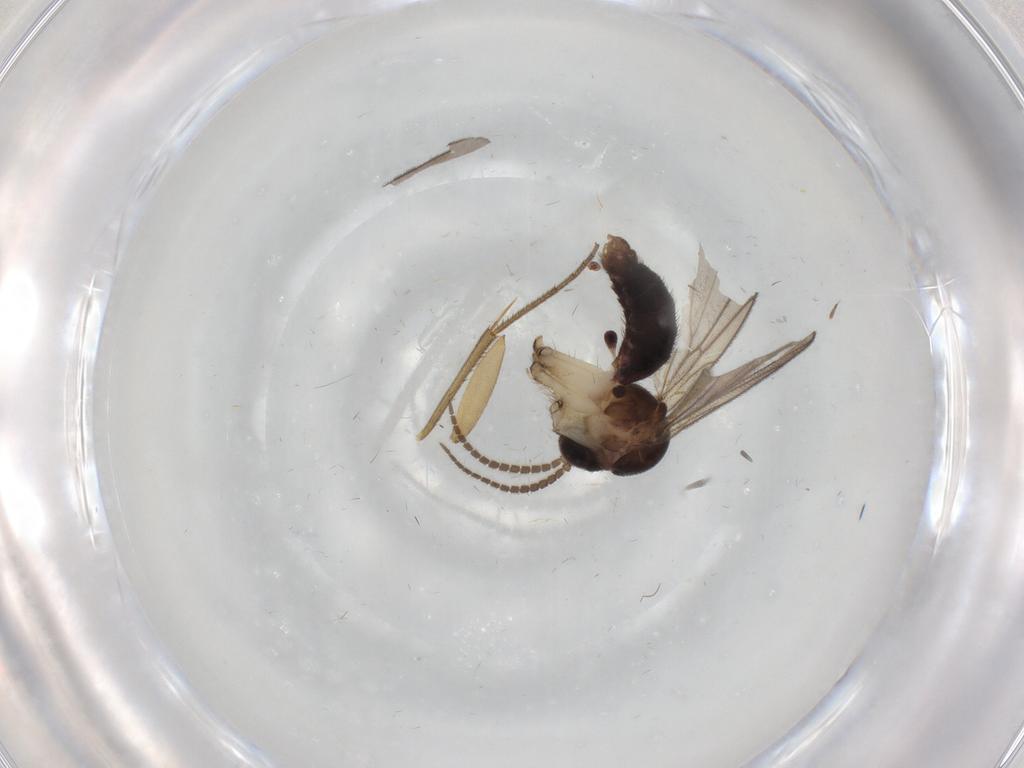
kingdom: Animalia
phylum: Arthropoda
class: Insecta
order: Diptera
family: Mycetophilidae
